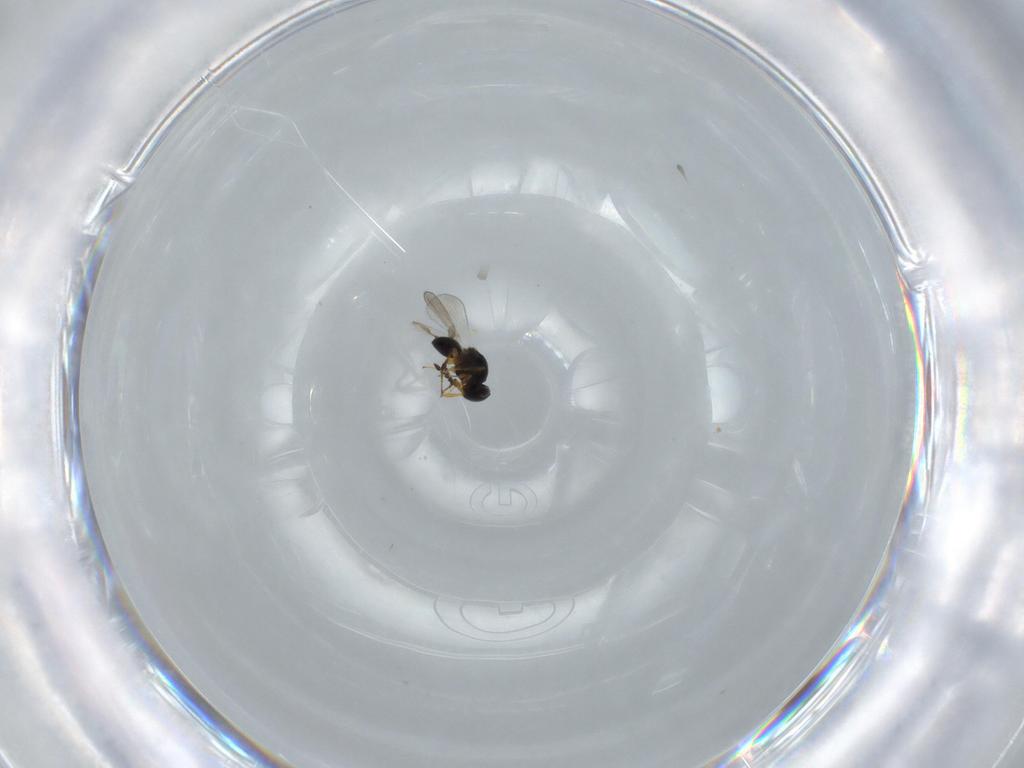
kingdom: Animalia
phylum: Arthropoda
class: Insecta
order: Hymenoptera
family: Platygastridae
